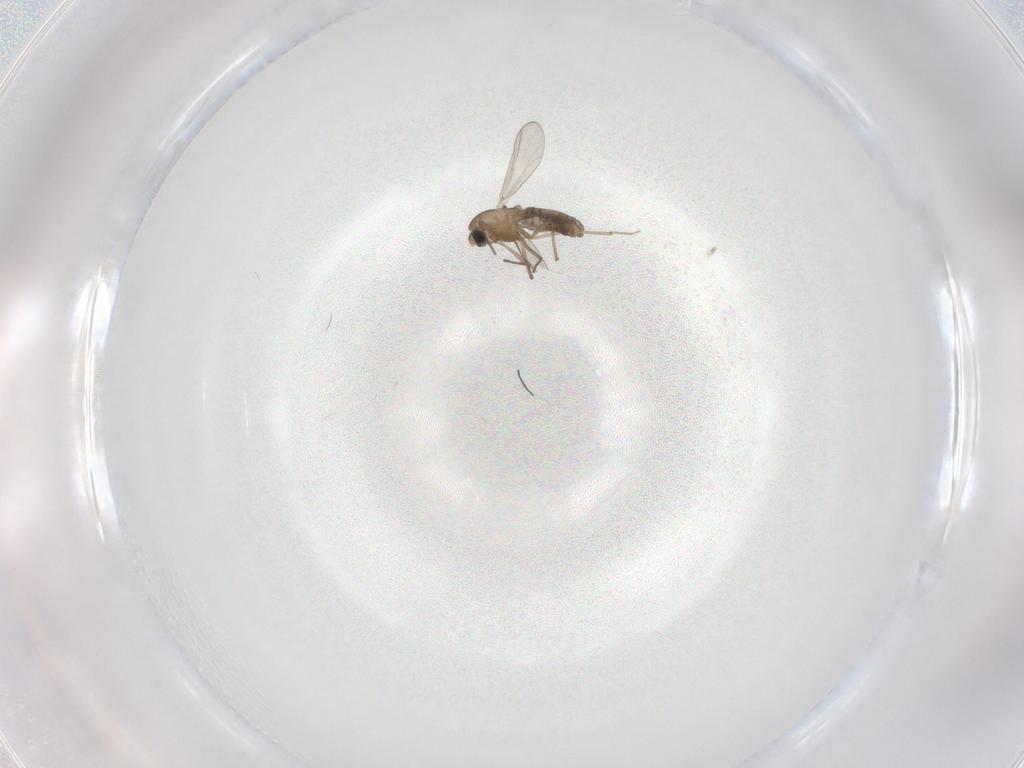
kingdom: Animalia
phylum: Arthropoda
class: Insecta
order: Diptera
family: Chironomidae
